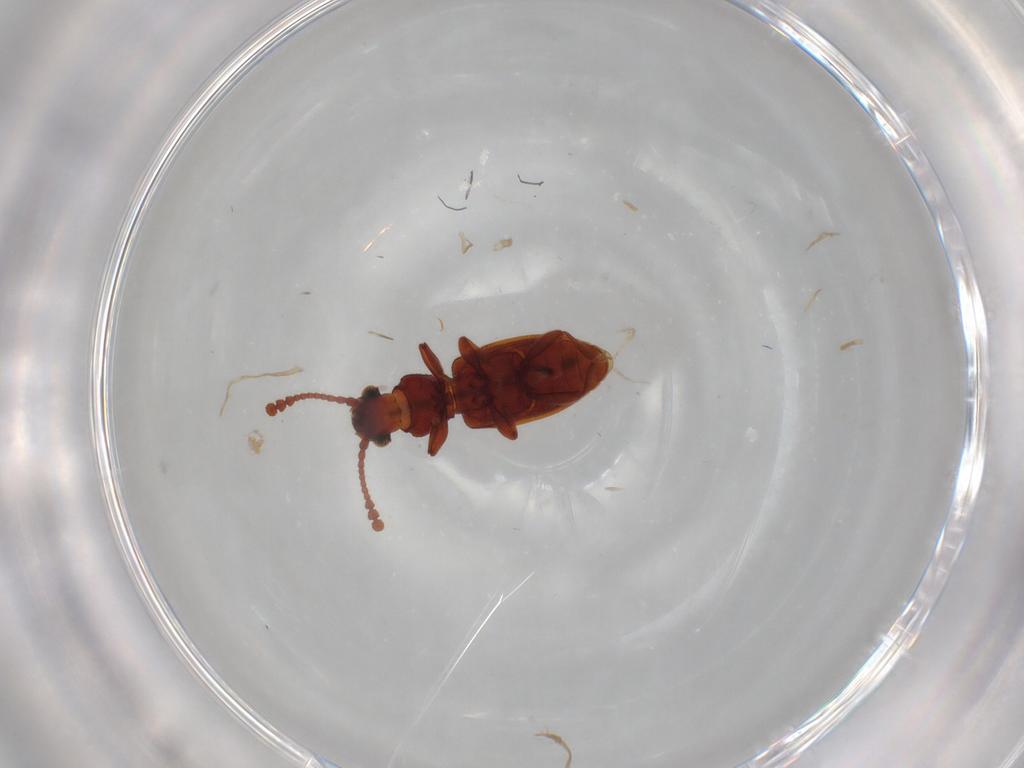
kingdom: Animalia
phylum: Arthropoda
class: Insecta
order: Coleoptera
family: Silvanidae
